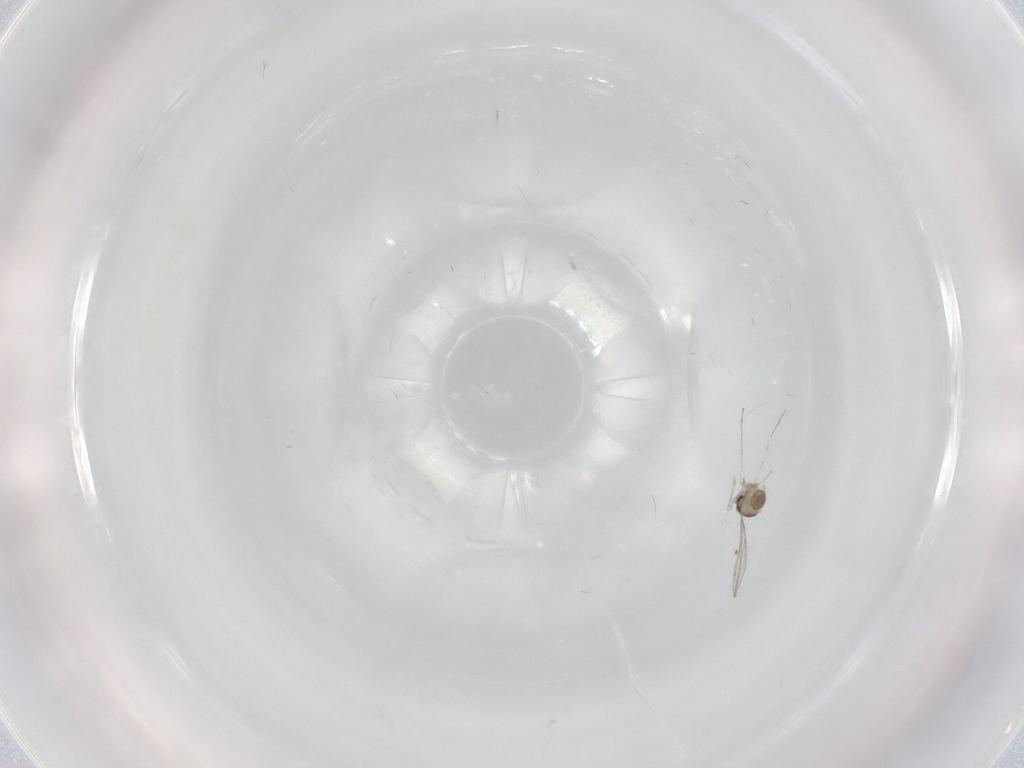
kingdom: Animalia
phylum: Arthropoda
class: Insecta
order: Diptera
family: Cecidomyiidae
